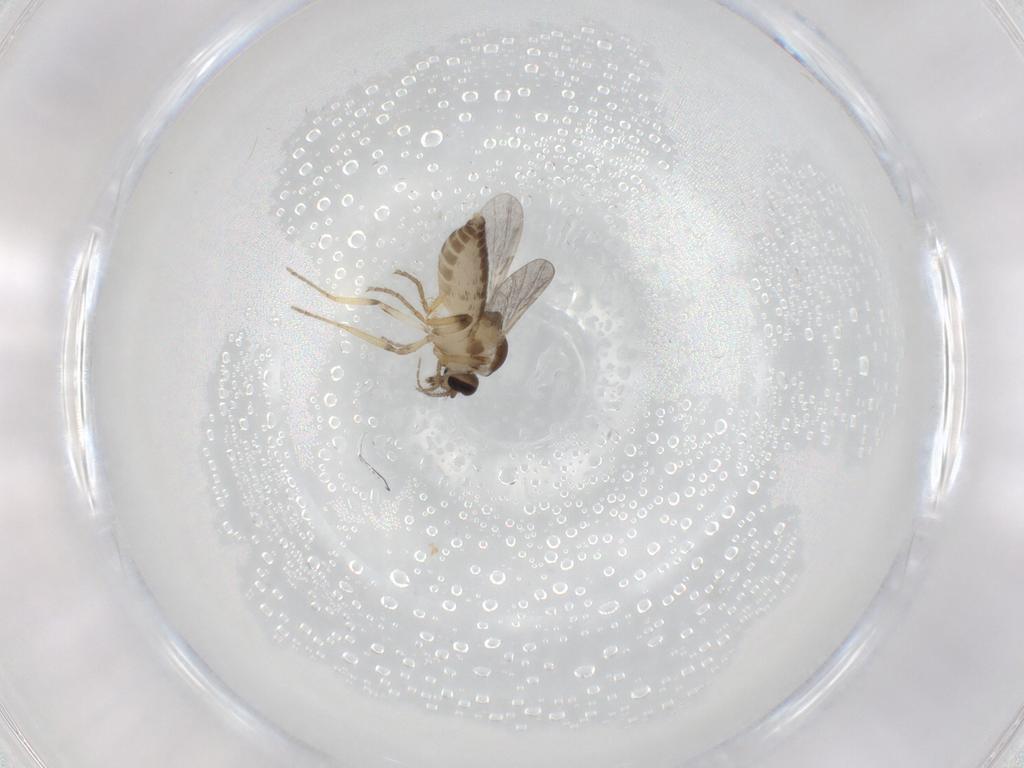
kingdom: Animalia
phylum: Arthropoda
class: Insecta
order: Diptera
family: Ceratopogonidae
